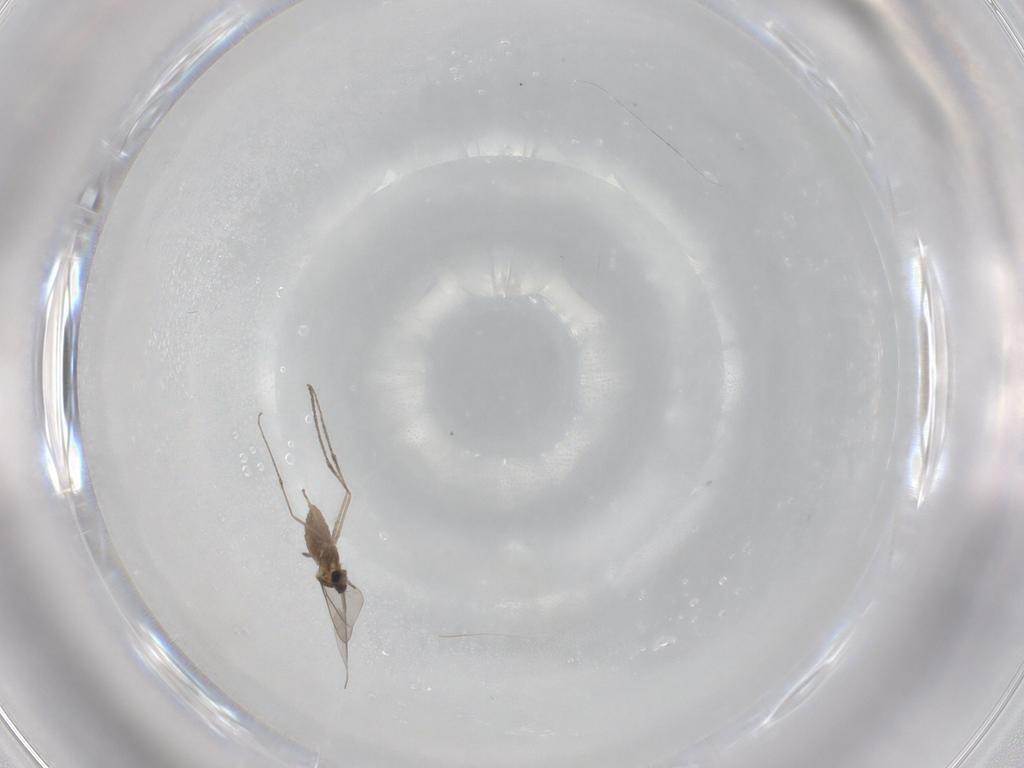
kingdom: Animalia
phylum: Arthropoda
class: Insecta
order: Diptera
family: Cecidomyiidae
